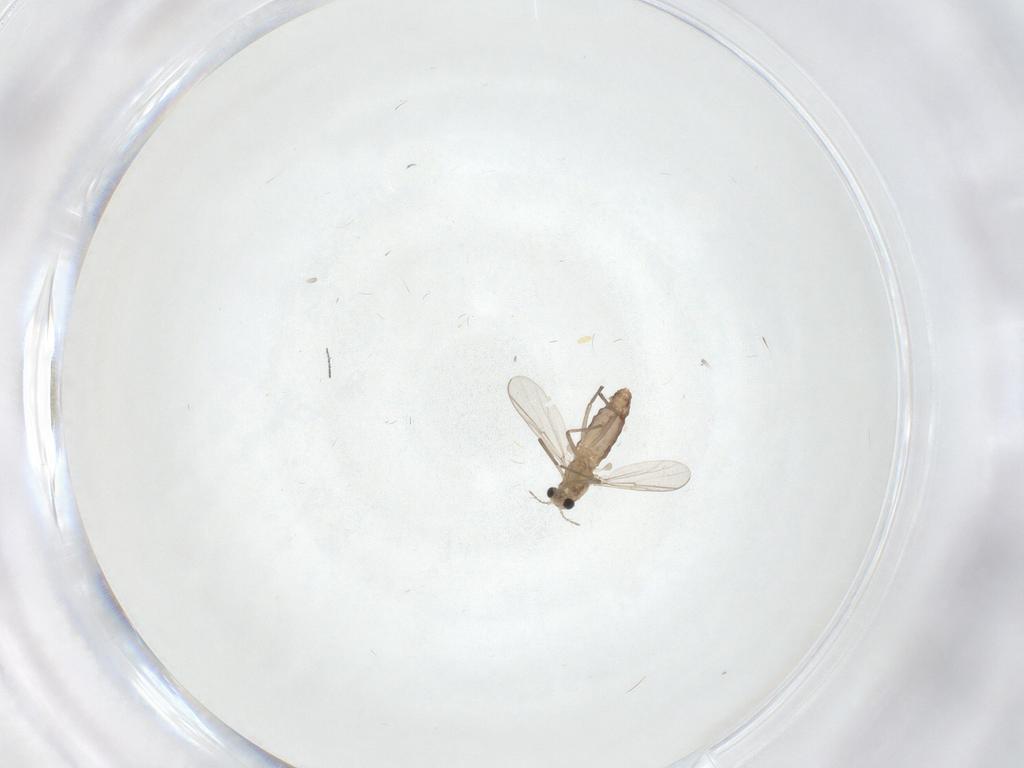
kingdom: Animalia
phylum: Arthropoda
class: Insecta
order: Diptera
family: Chironomidae
